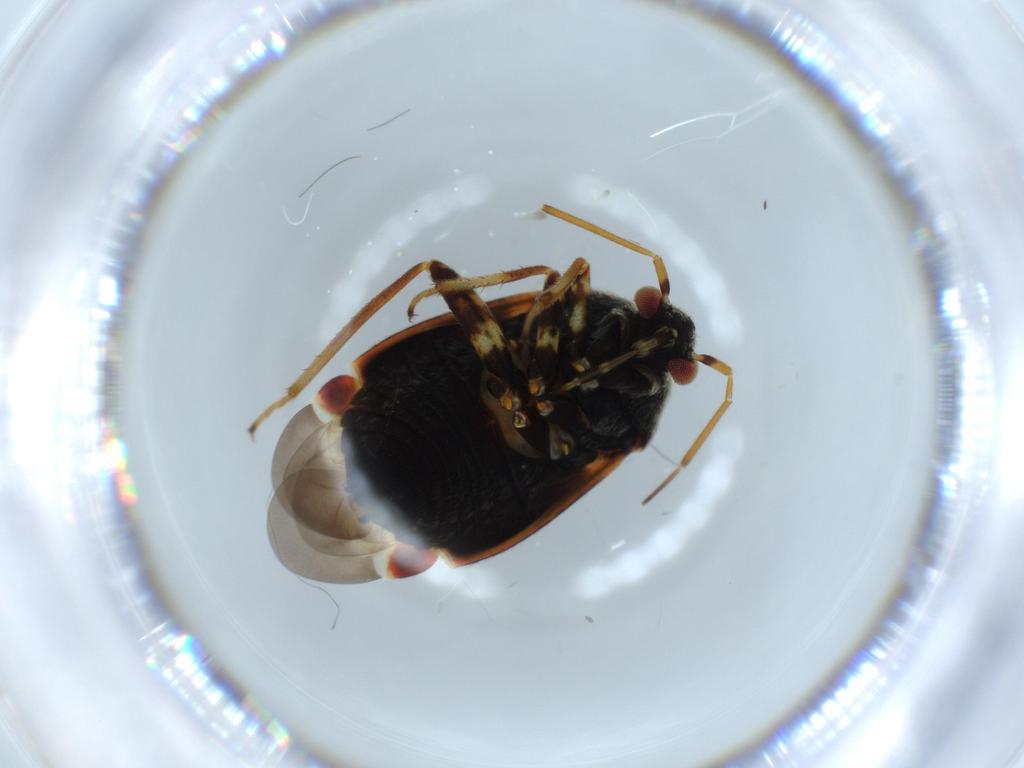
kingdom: Animalia
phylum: Arthropoda
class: Insecta
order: Hemiptera
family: Miridae
